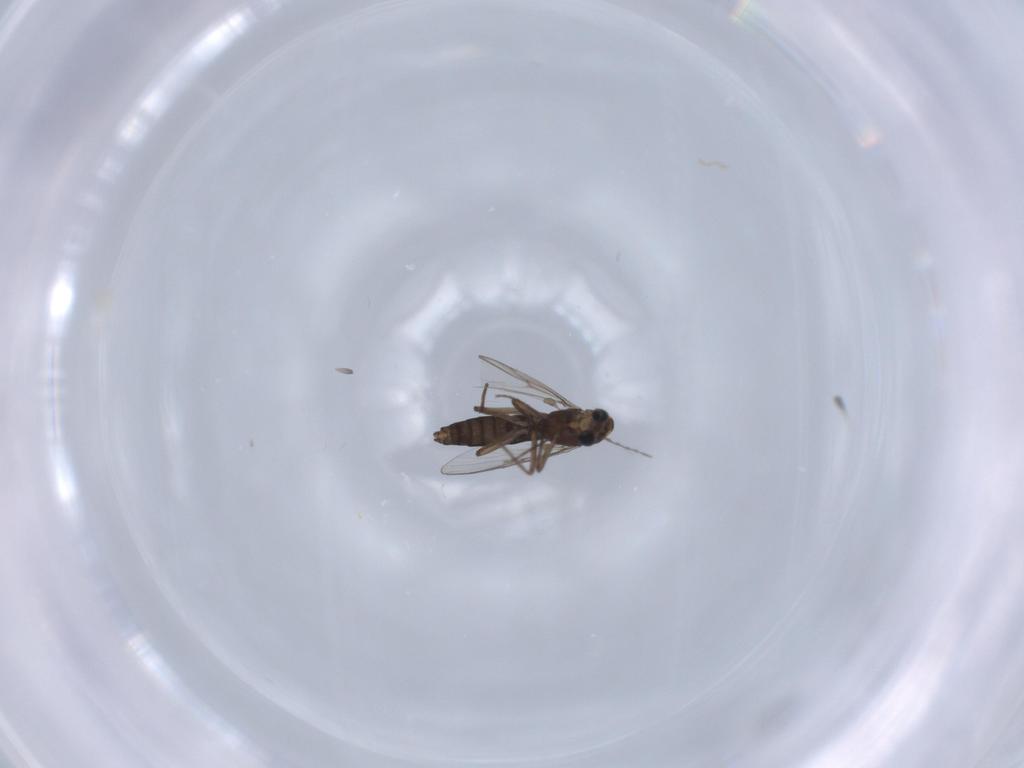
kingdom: Animalia
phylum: Arthropoda
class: Insecta
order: Diptera
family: Chironomidae
